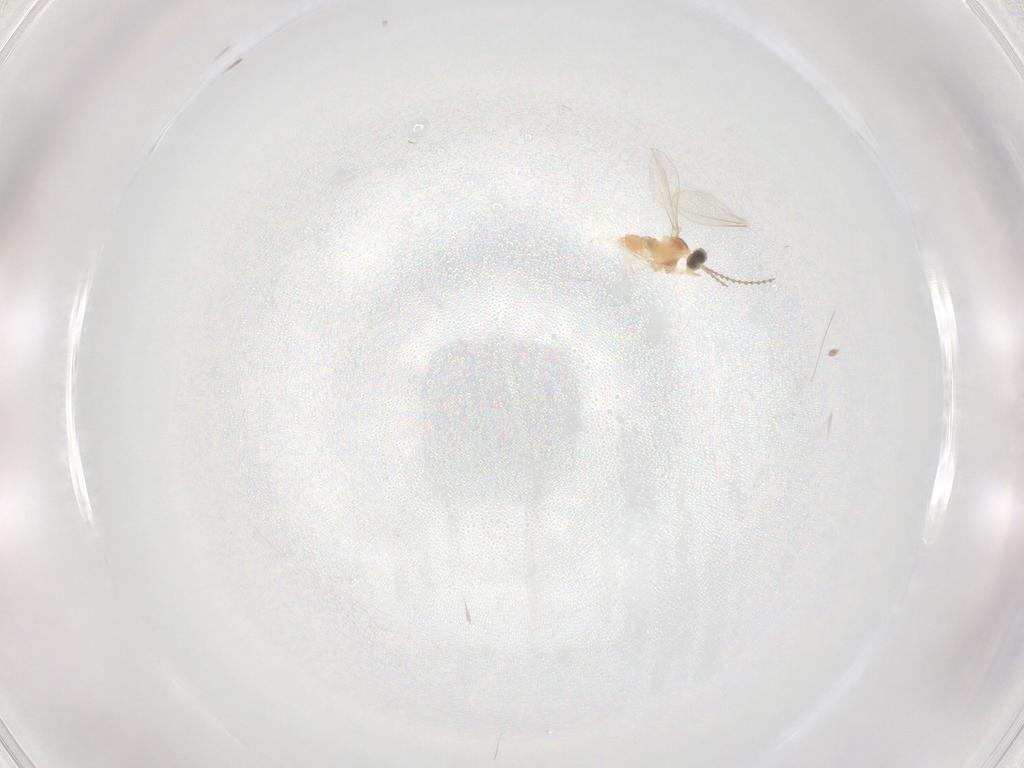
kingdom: Animalia
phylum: Arthropoda
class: Insecta
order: Diptera
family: Cecidomyiidae
